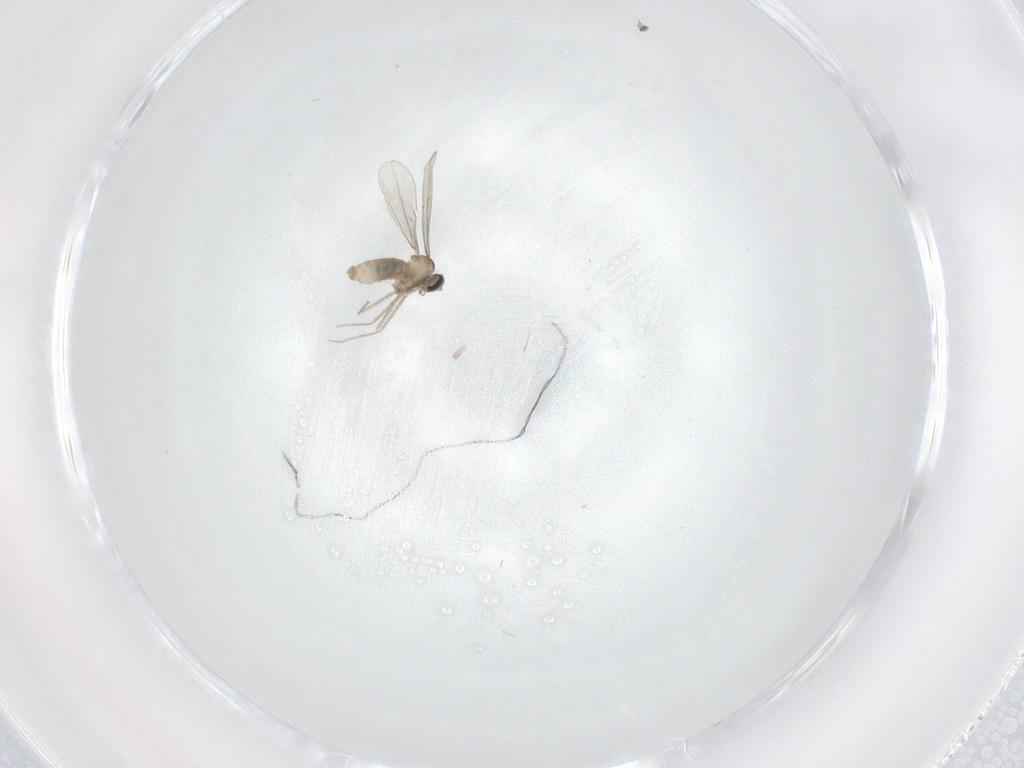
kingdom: Animalia
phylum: Arthropoda
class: Insecta
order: Diptera
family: Cecidomyiidae
